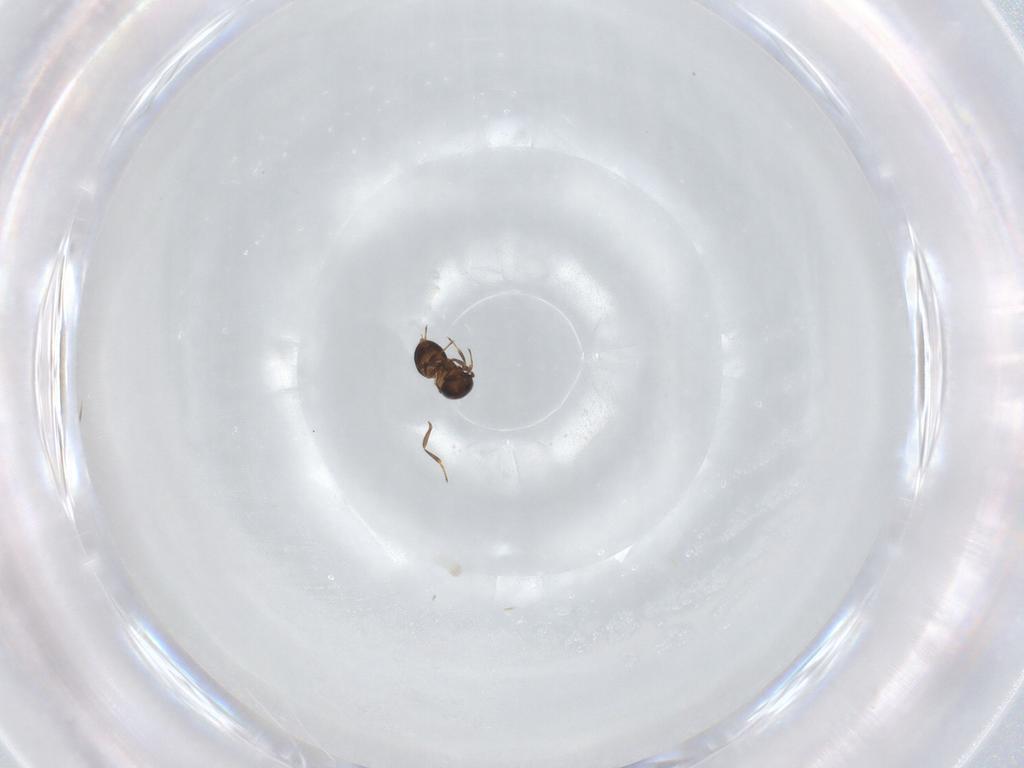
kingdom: Animalia
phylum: Arthropoda
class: Insecta
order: Hymenoptera
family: Scelionidae
